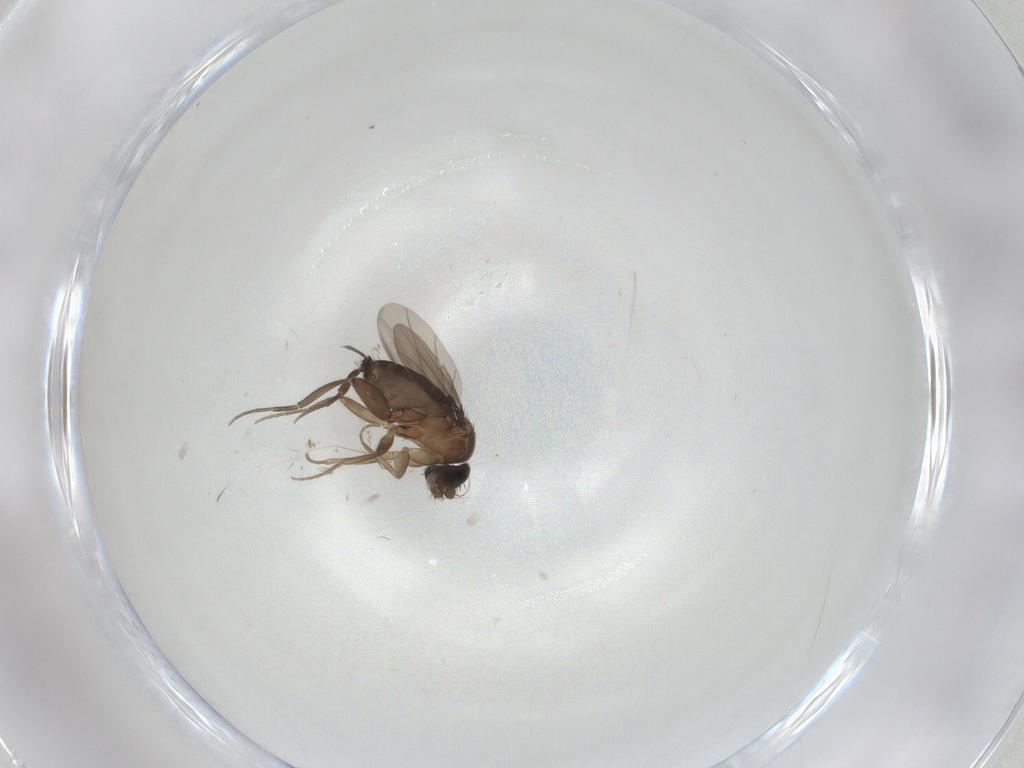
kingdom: Animalia
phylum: Arthropoda
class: Insecta
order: Diptera
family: Phoridae
